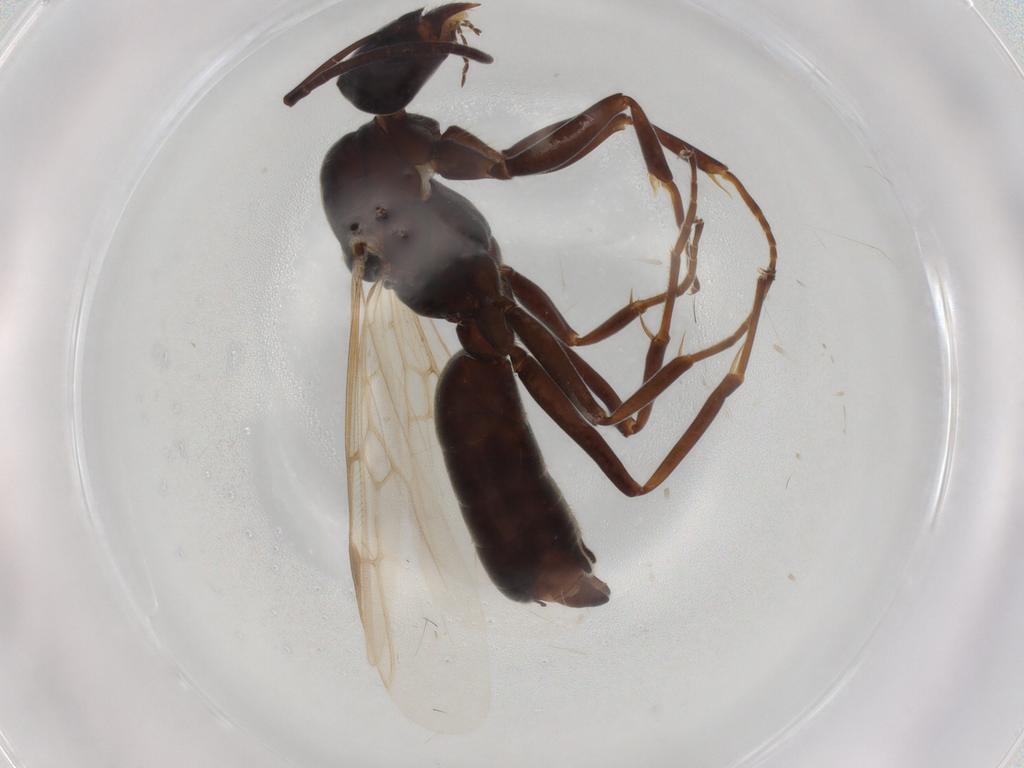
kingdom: Animalia
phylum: Arthropoda
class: Insecta
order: Hymenoptera
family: Formicidae
